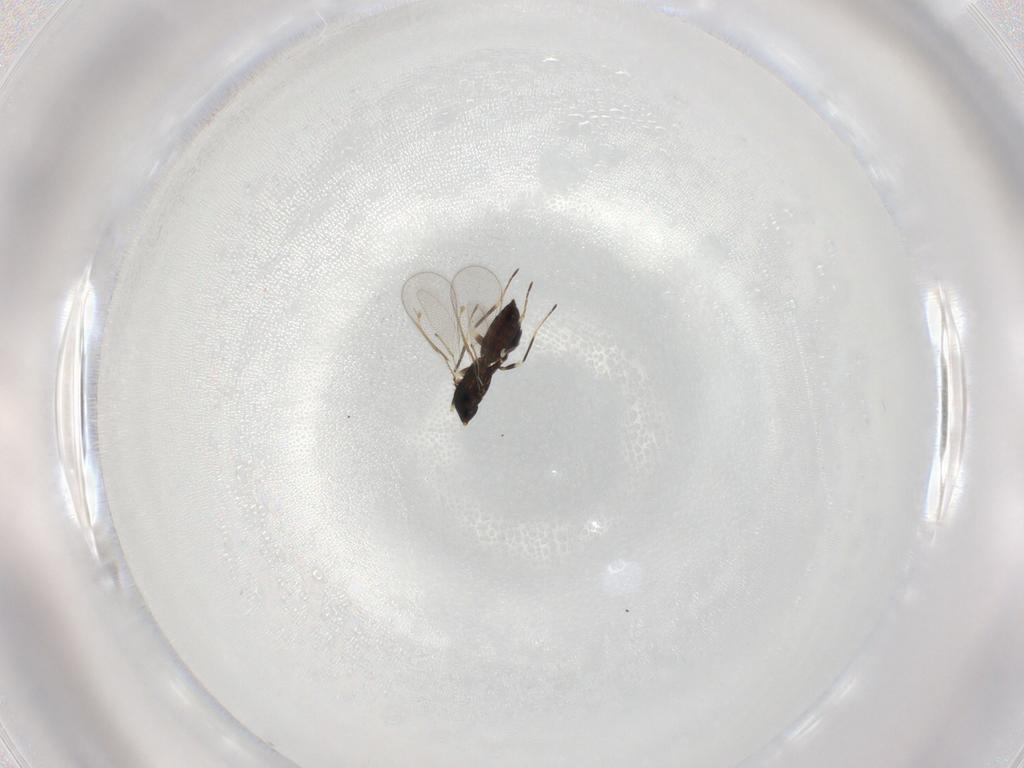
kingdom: Animalia
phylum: Arthropoda
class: Insecta
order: Hymenoptera
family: Eulophidae
